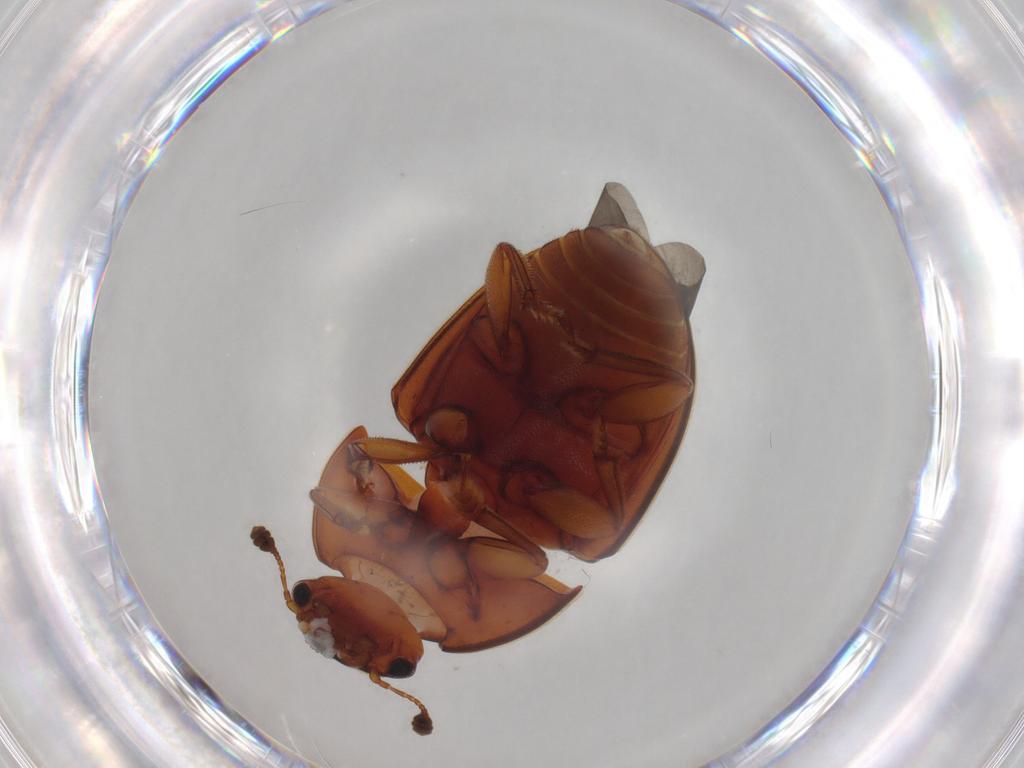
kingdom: Animalia
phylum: Arthropoda
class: Insecta
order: Coleoptera
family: Nitidulidae
